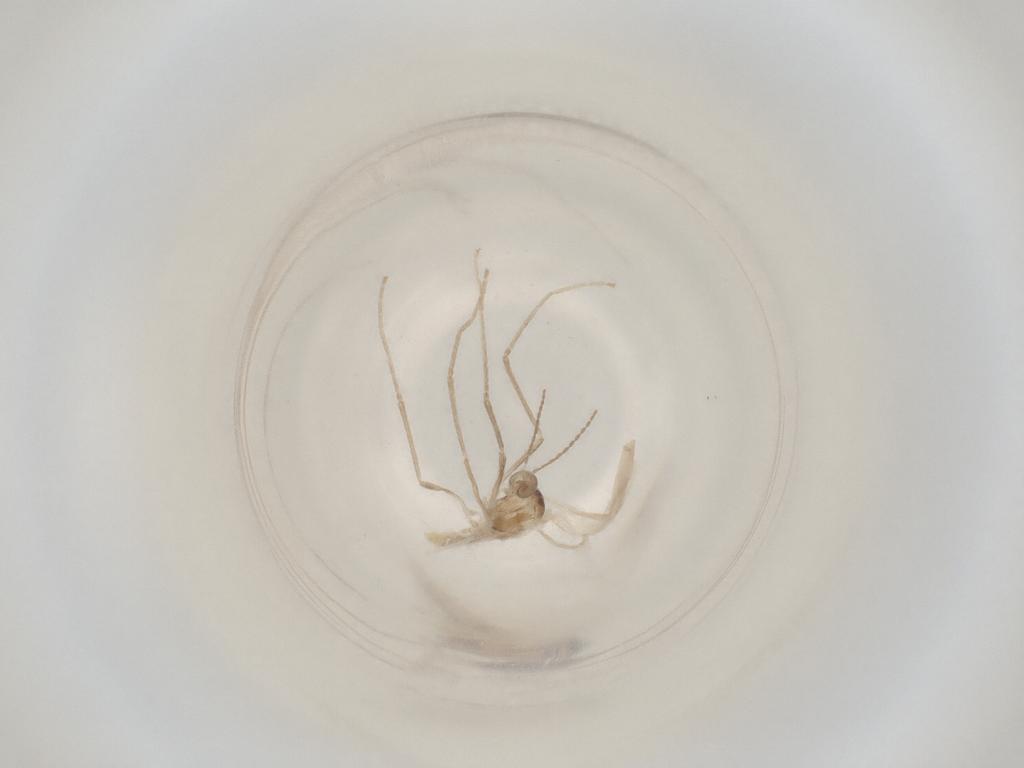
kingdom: Animalia
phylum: Arthropoda
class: Insecta
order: Diptera
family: Cecidomyiidae
